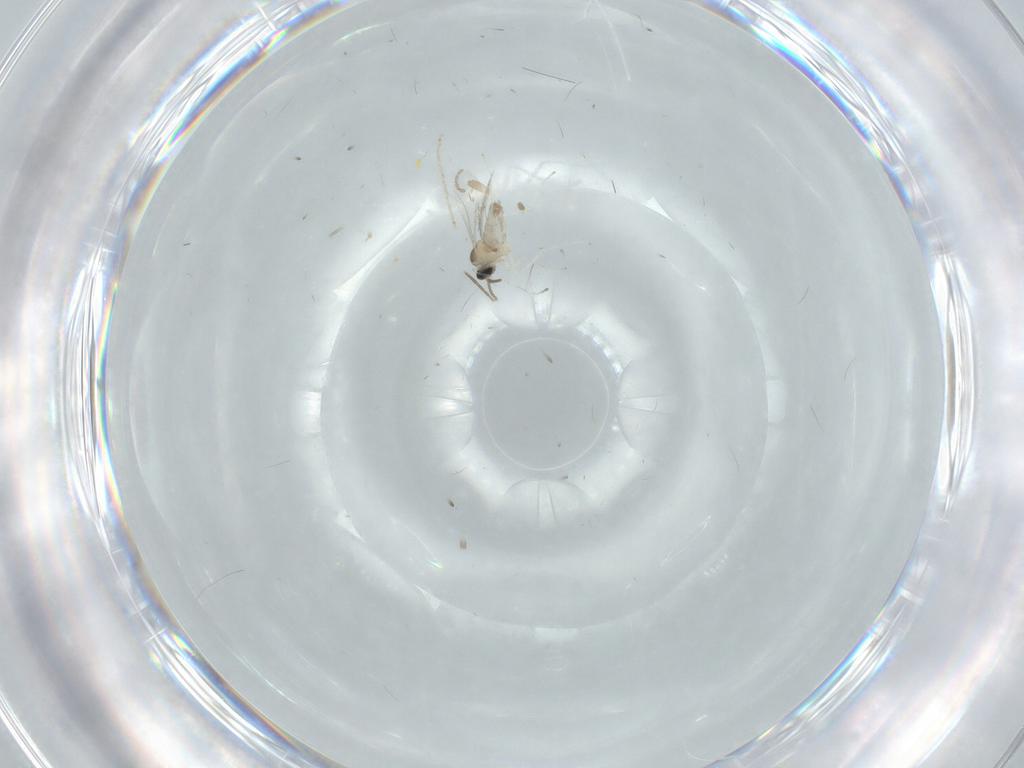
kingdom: Animalia
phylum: Arthropoda
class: Insecta
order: Diptera
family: Cecidomyiidae
